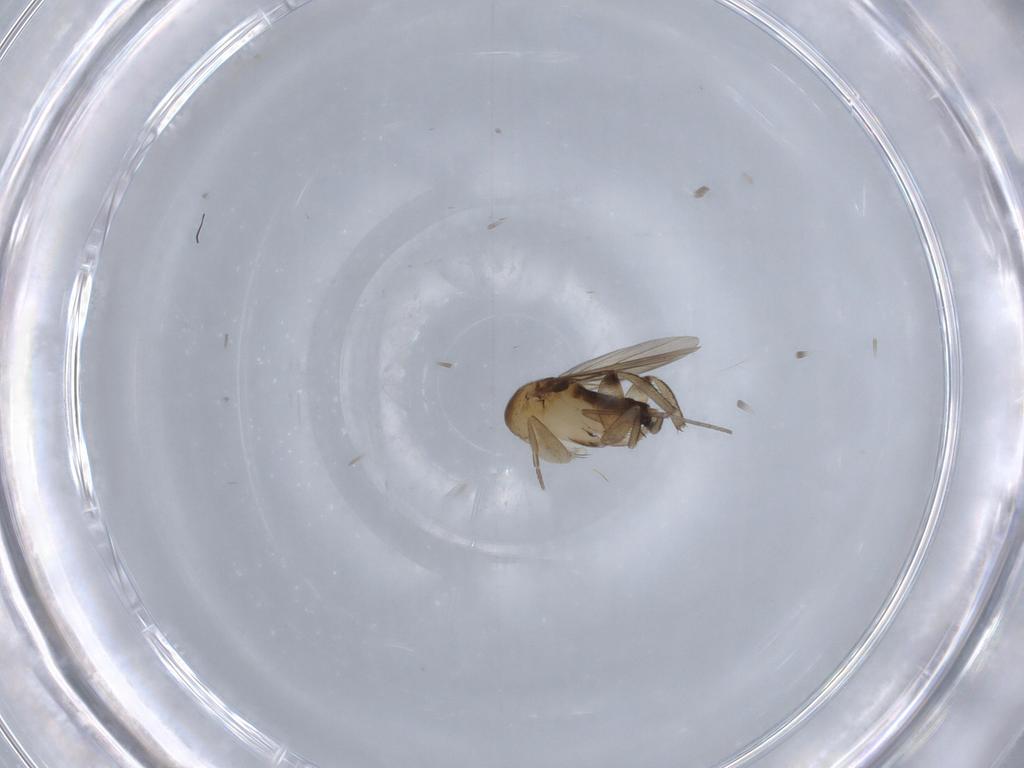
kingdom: Animalia
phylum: Arthropoda
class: Insecta
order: Diptera
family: Phoridae
